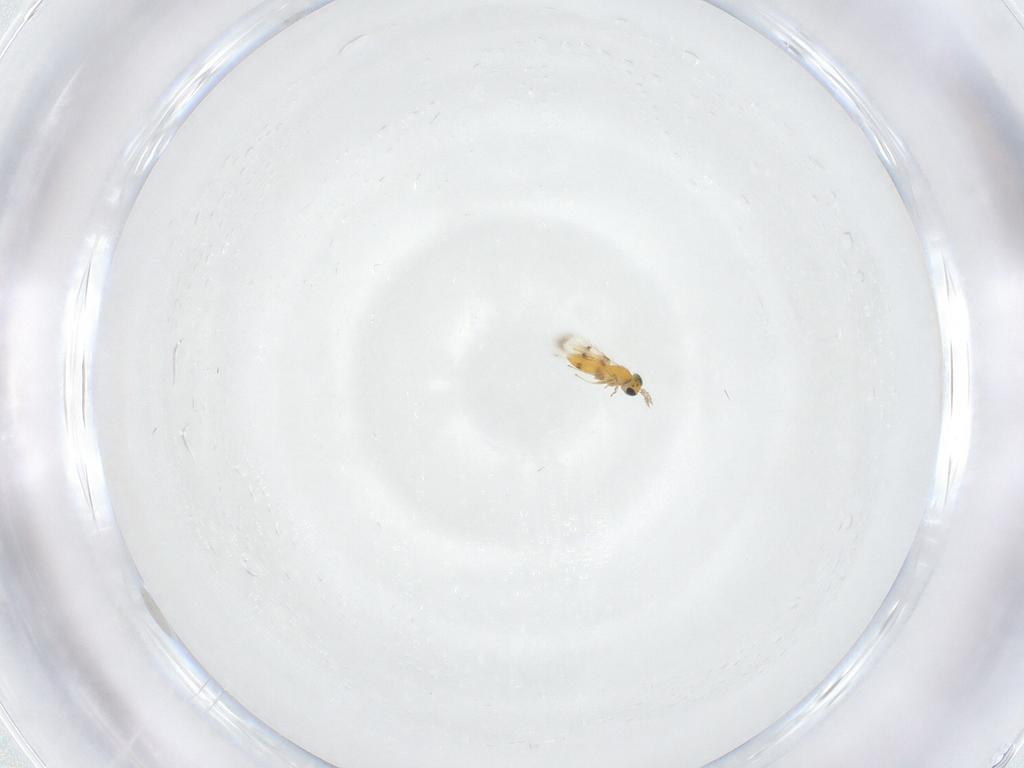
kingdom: Animalia
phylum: Arthropoda
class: Insecta
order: Hymenoptera
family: Trichogrammatidae
